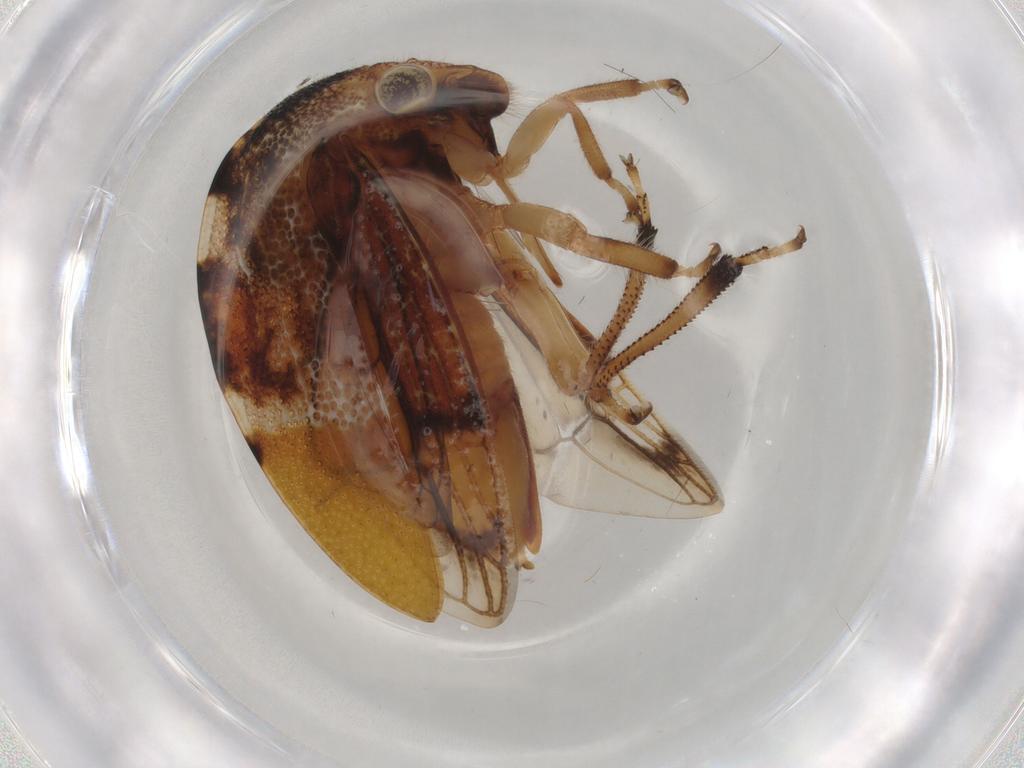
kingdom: Animalia
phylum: Arthropoda
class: Insecta
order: Hemiptera
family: Membracidae
